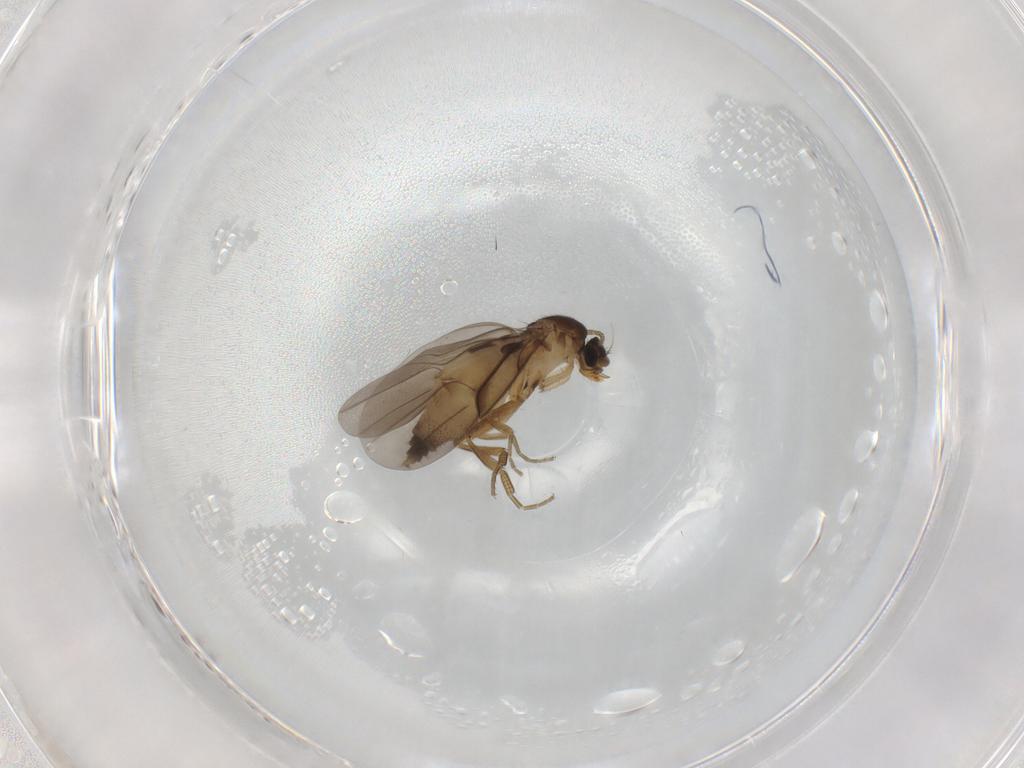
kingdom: Animalia
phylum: Arthropoda
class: Insecta
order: Diptera
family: Phoridae
